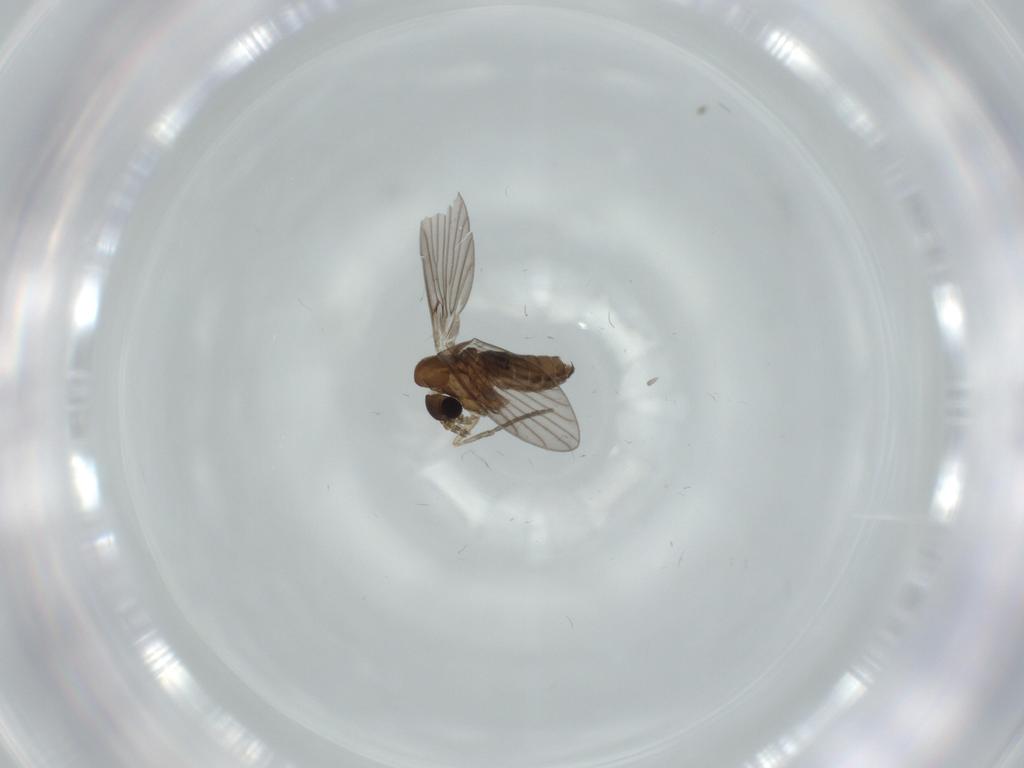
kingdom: Animalia
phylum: Arthropoda
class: Insecta
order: Diptera
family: Psychodidae
